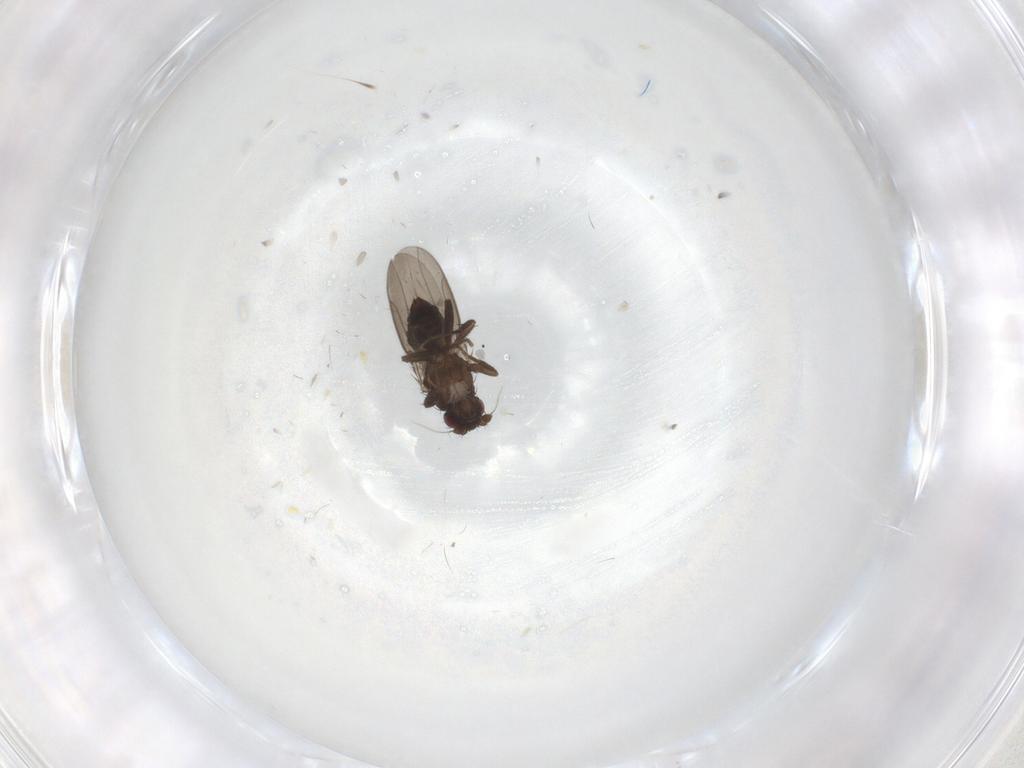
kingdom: Animalia
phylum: Arthropoda
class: Insecta
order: Diptera
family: Sphaeroceridae
